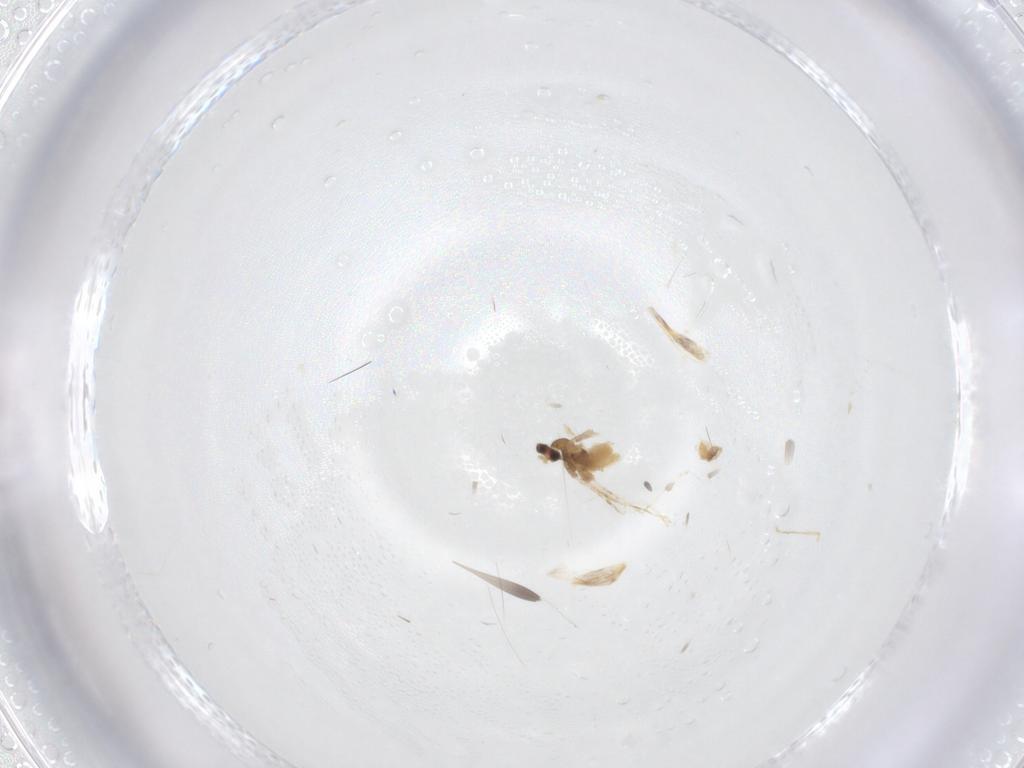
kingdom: Animalia
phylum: Arthropoda
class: Insecta
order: Diptera
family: Cecidomyiidae
